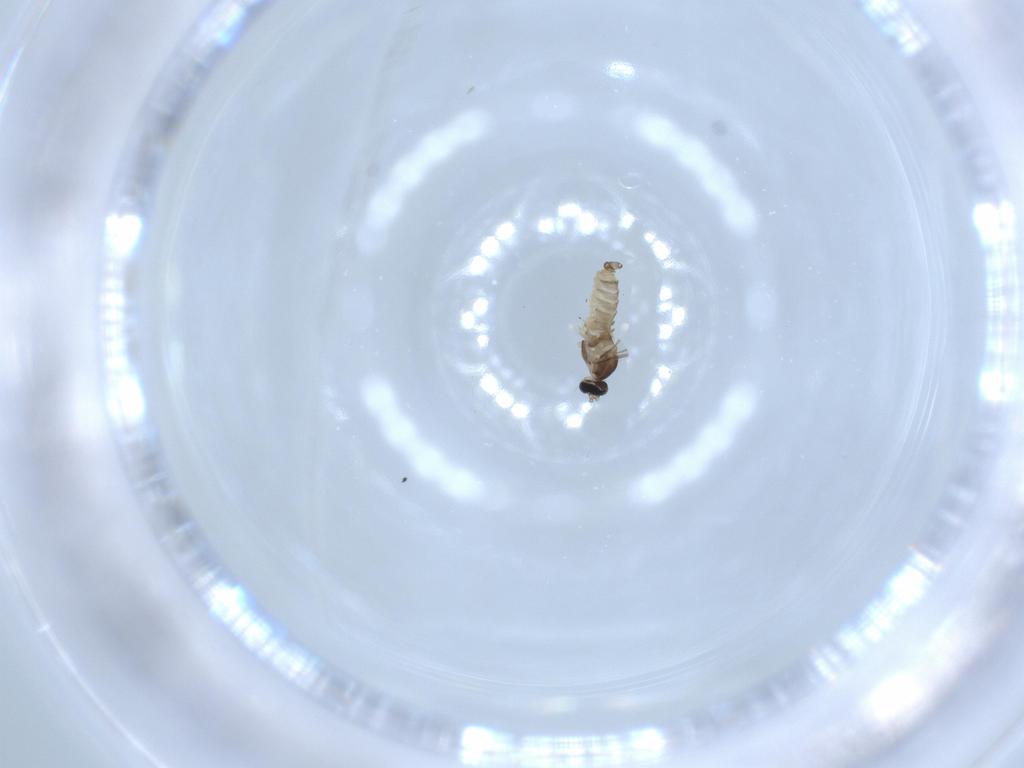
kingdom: Animalia
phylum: Arthropoda
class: Insecta
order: Diptera
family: Cecidomyiidae
